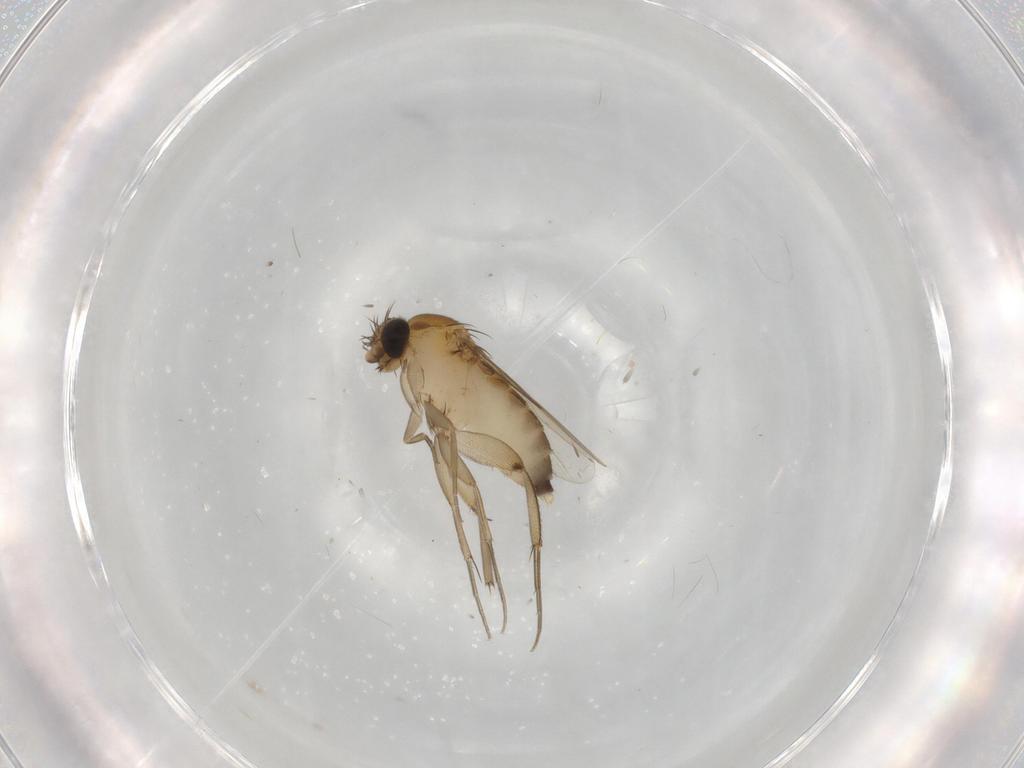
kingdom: Animalia
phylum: Arthropoda
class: Insecta
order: Diptera
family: Phoridae
